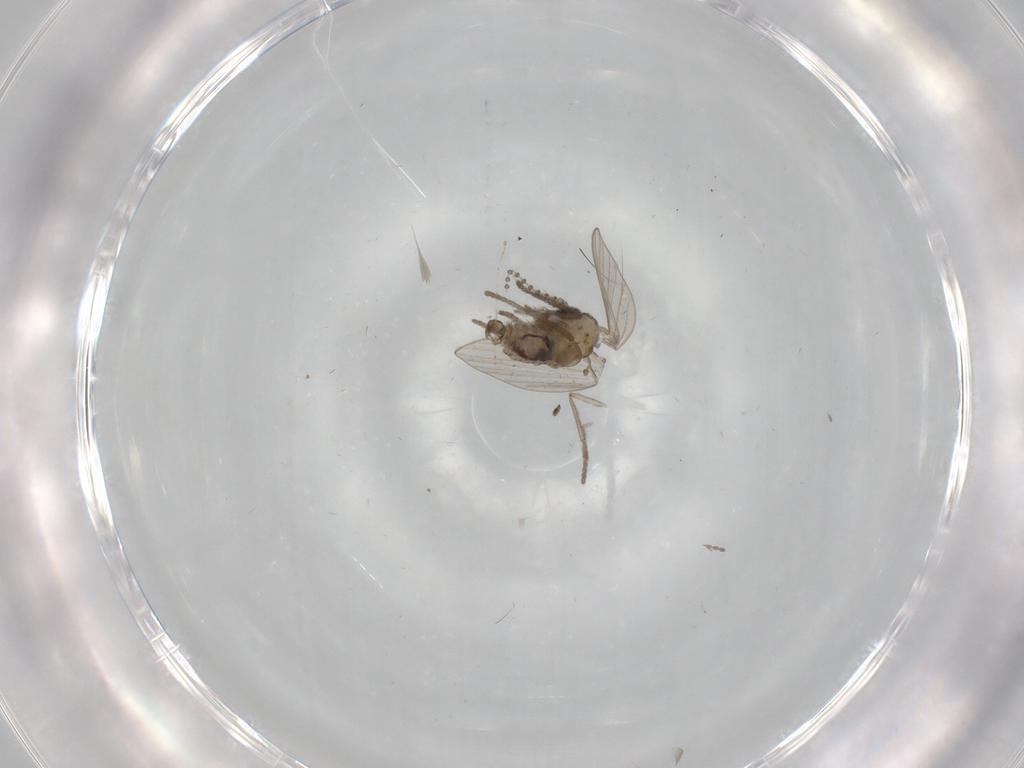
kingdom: Animalia
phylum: Arthropoda
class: Insecta
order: Diptera
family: Psychodidae
